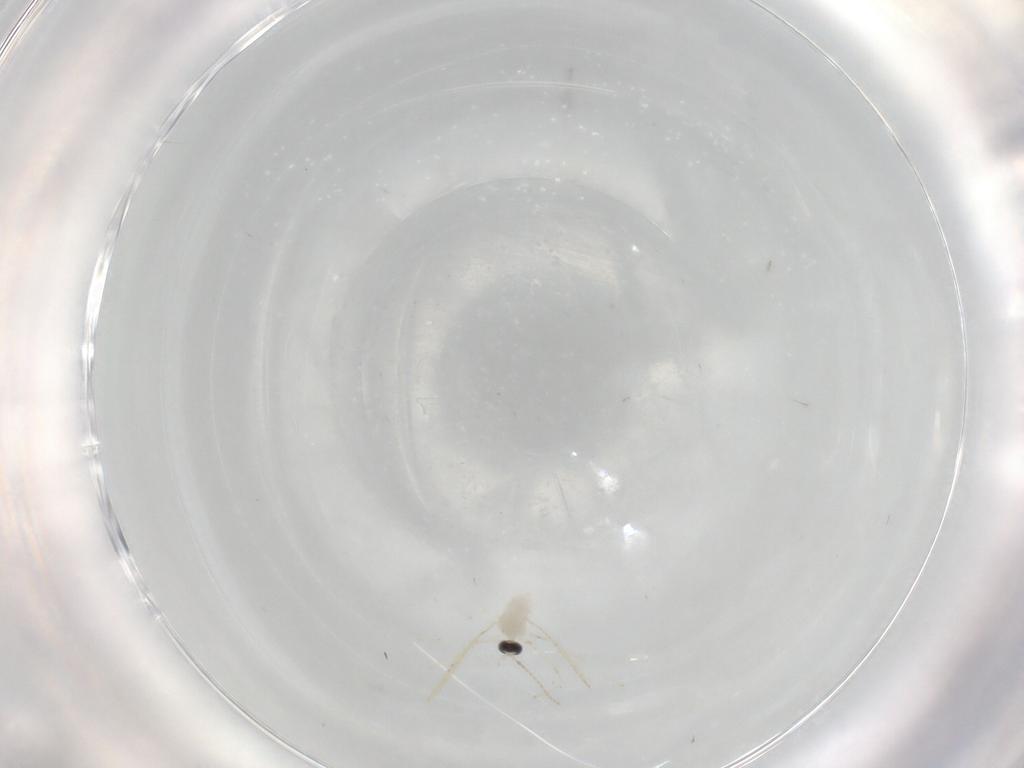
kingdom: Animalia
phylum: Arthropoda
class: Insecta
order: Diptera
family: Cecidomyiidae
